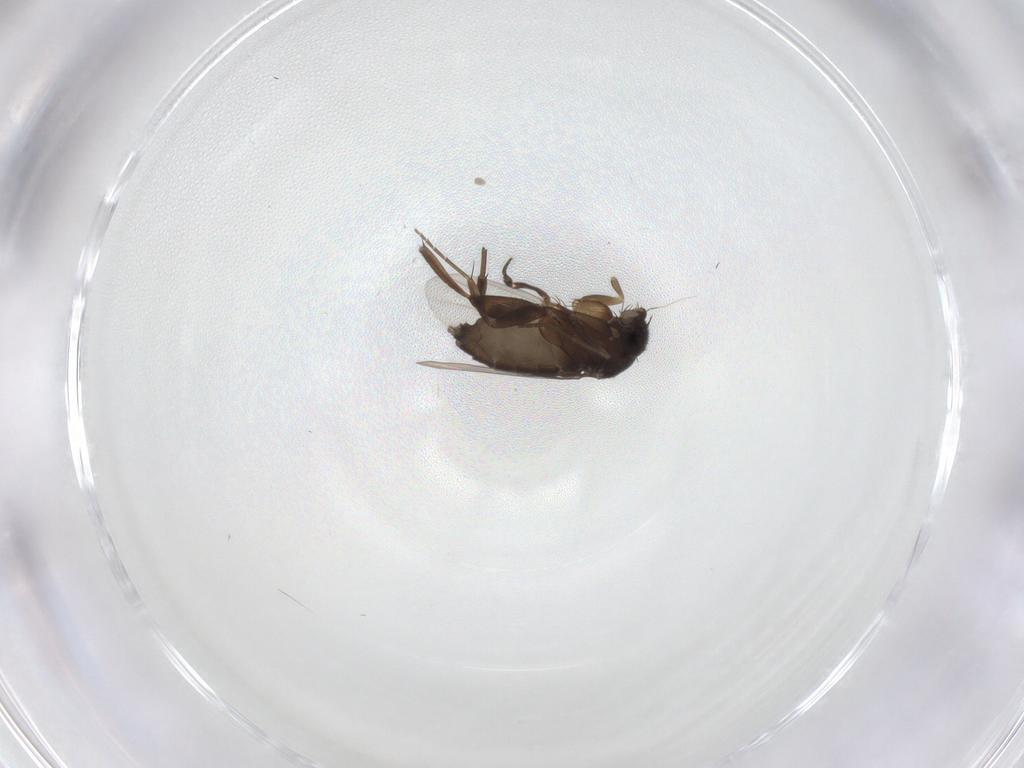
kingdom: Animalia
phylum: Arthropoda
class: Insecta
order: Diptera
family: Phoridae
